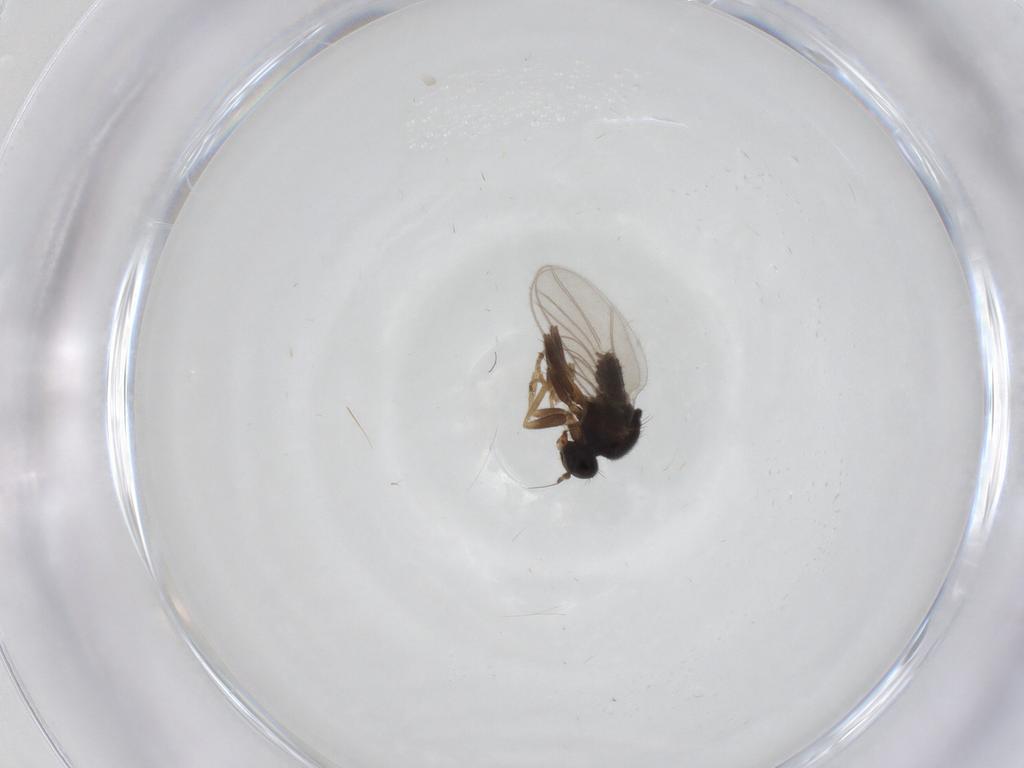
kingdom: Animalia
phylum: Arthropoda
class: Insecta
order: Diptera
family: Hybotidae
